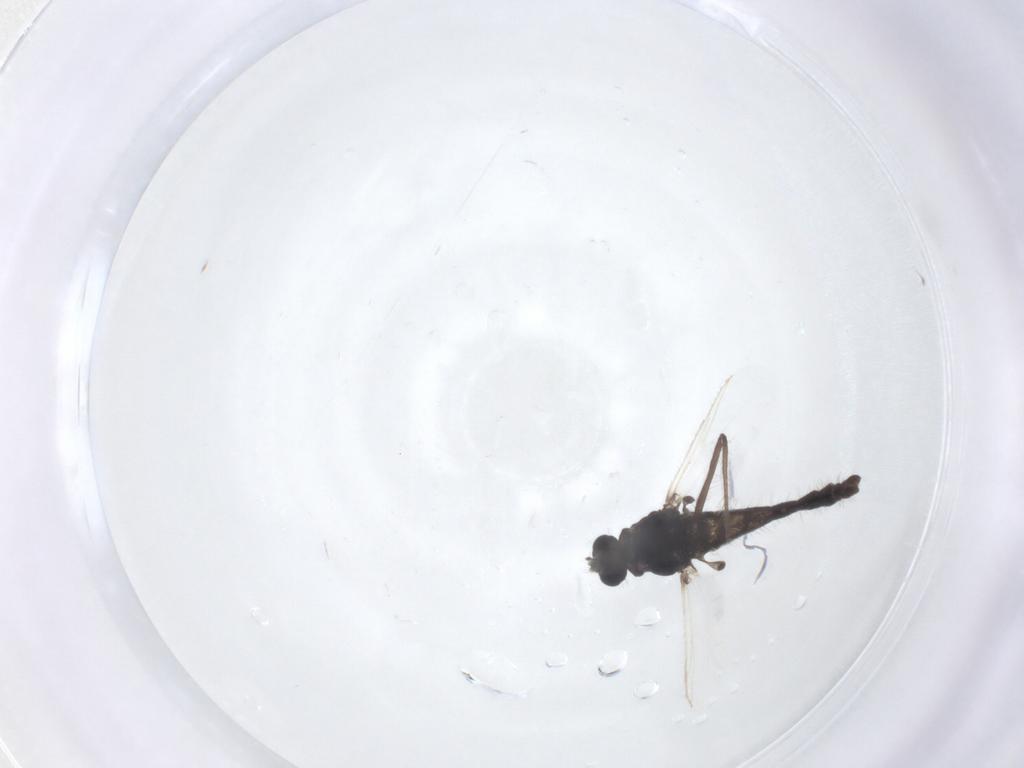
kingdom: Animalia
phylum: Arthropoda
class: Insecta
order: Diptera
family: Chironomidae
